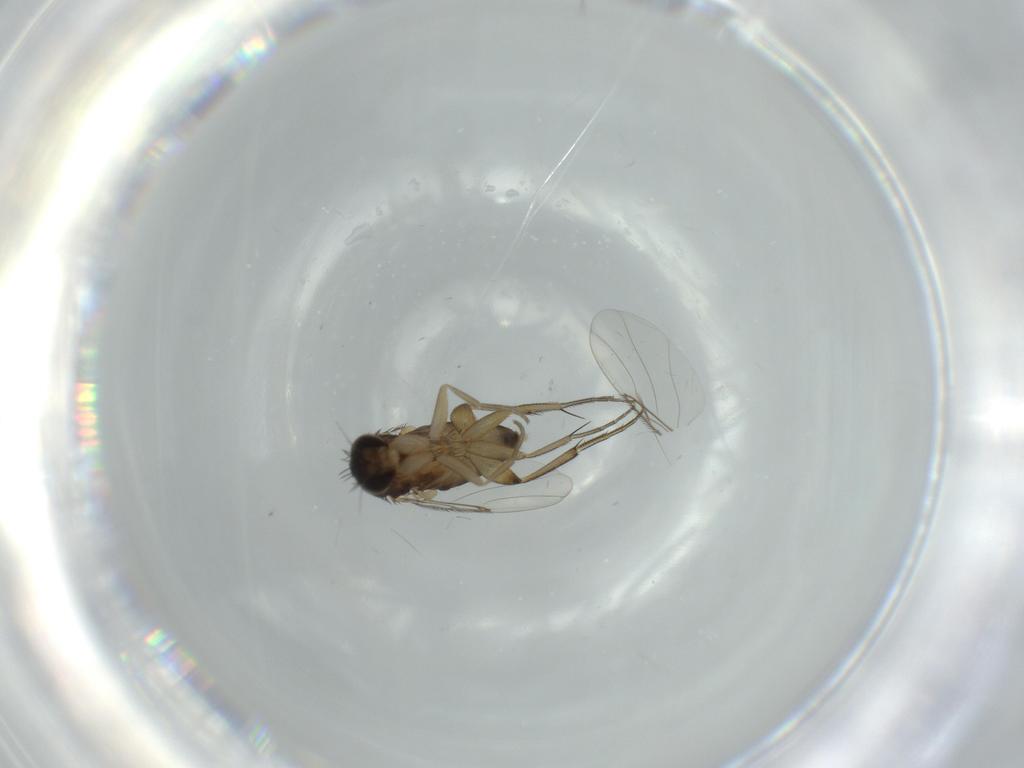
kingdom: Animalia
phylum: Arthropoda
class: Insecta
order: Diptera
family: Phoridae
